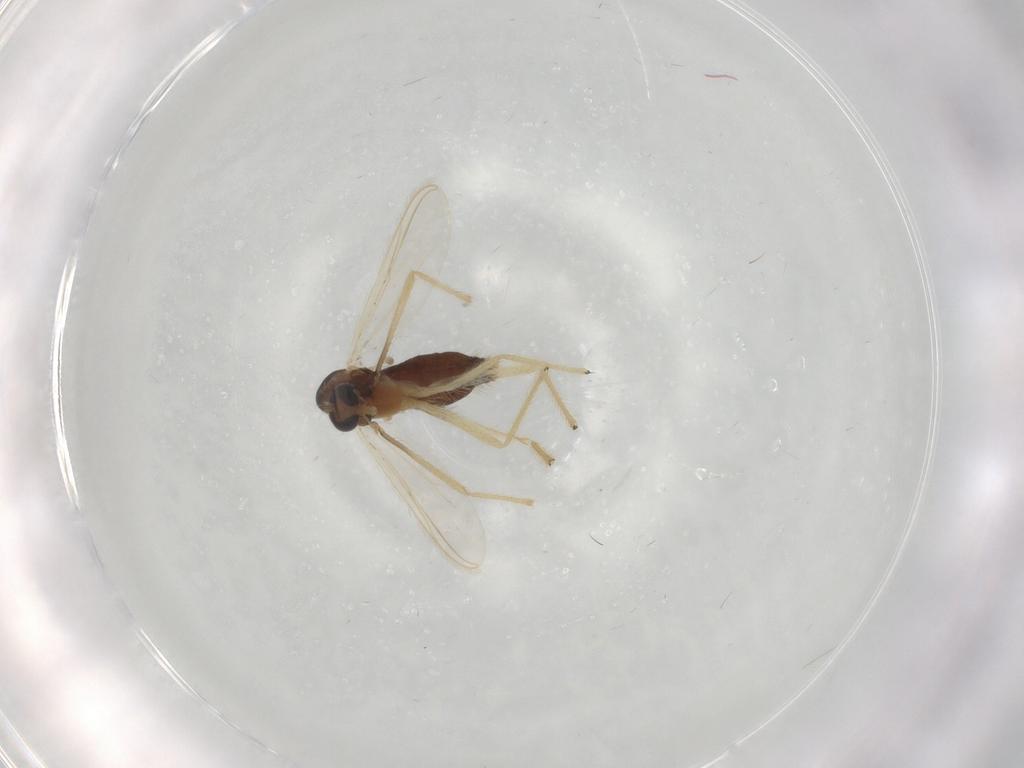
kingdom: Animalia
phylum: Arthropoda
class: Insecta
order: Diptera
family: Chironomidae
